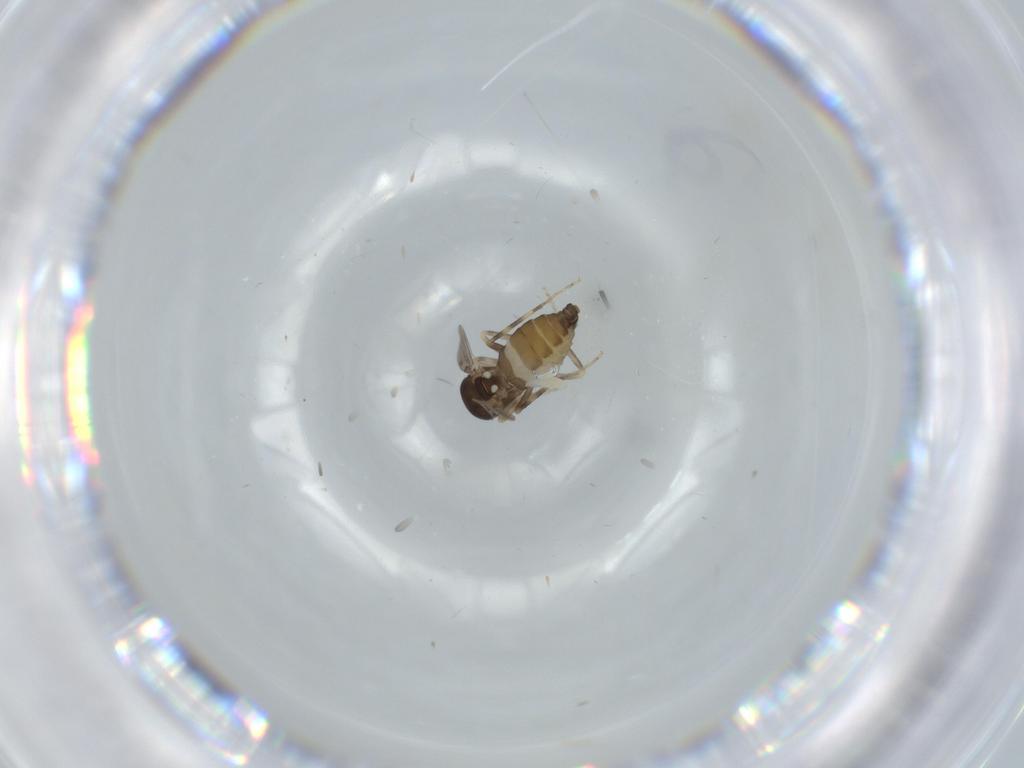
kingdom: Animalia
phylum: Arthropoda
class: Insecta
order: Diptera
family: Ceratopogonidae
